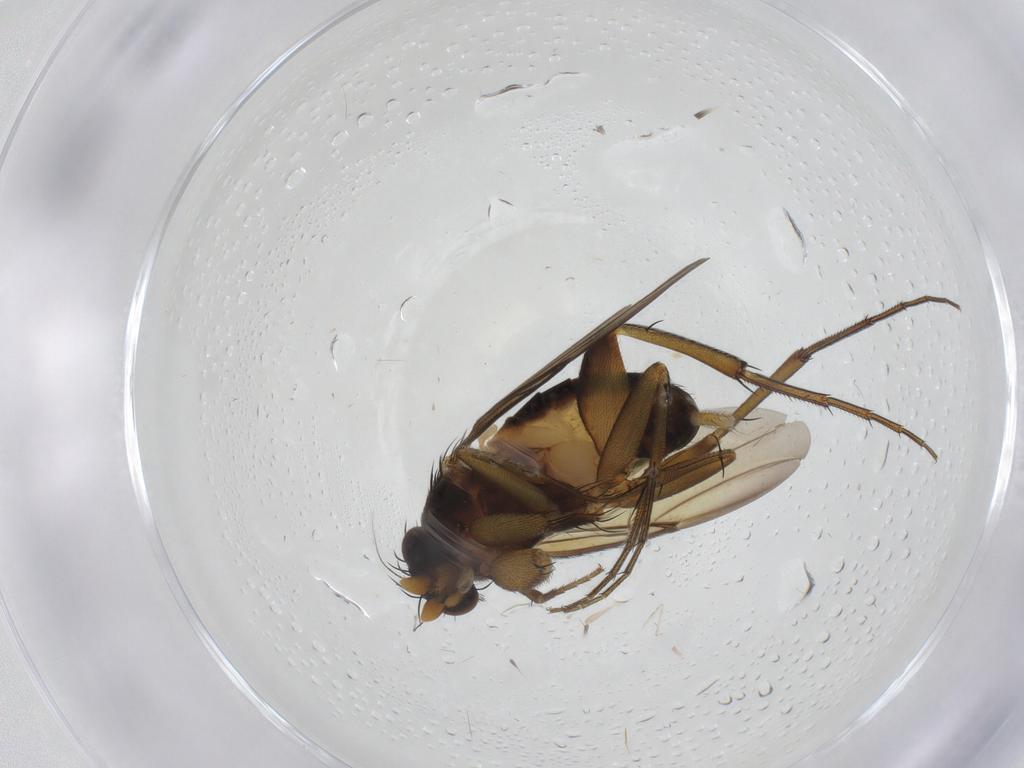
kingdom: Animalia
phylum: Arthropoda
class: Insecta
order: Diptera
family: Phoridae
